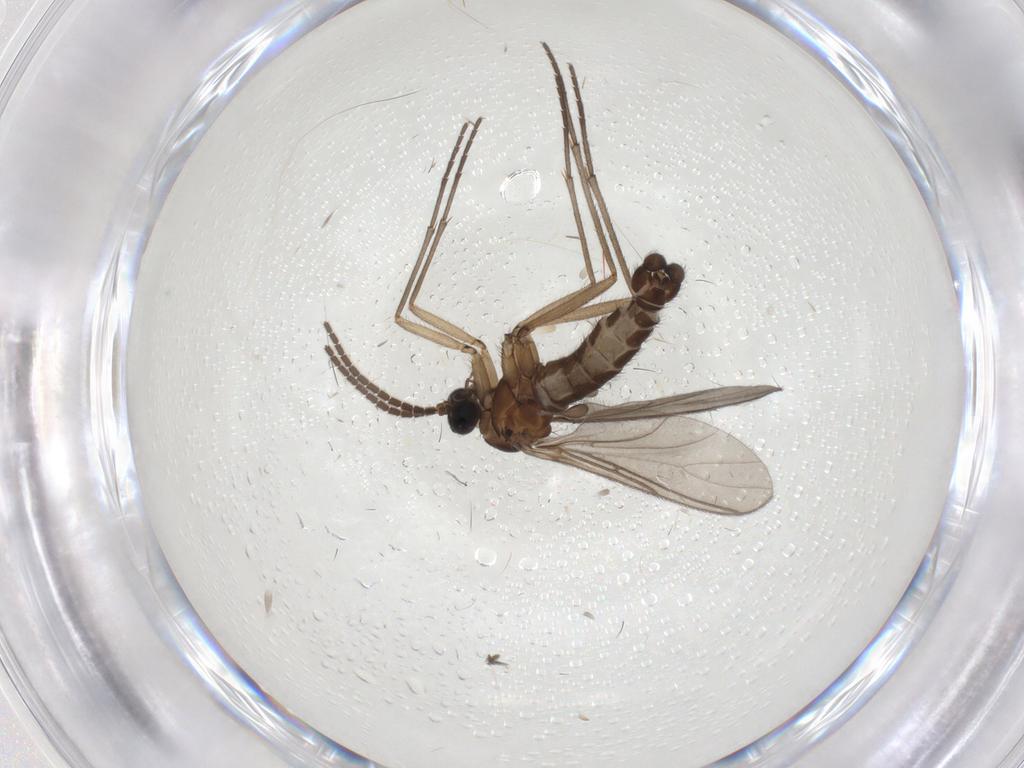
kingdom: Animalia
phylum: Arthropoda
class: Insecta
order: Diptera
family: Sciaridae
